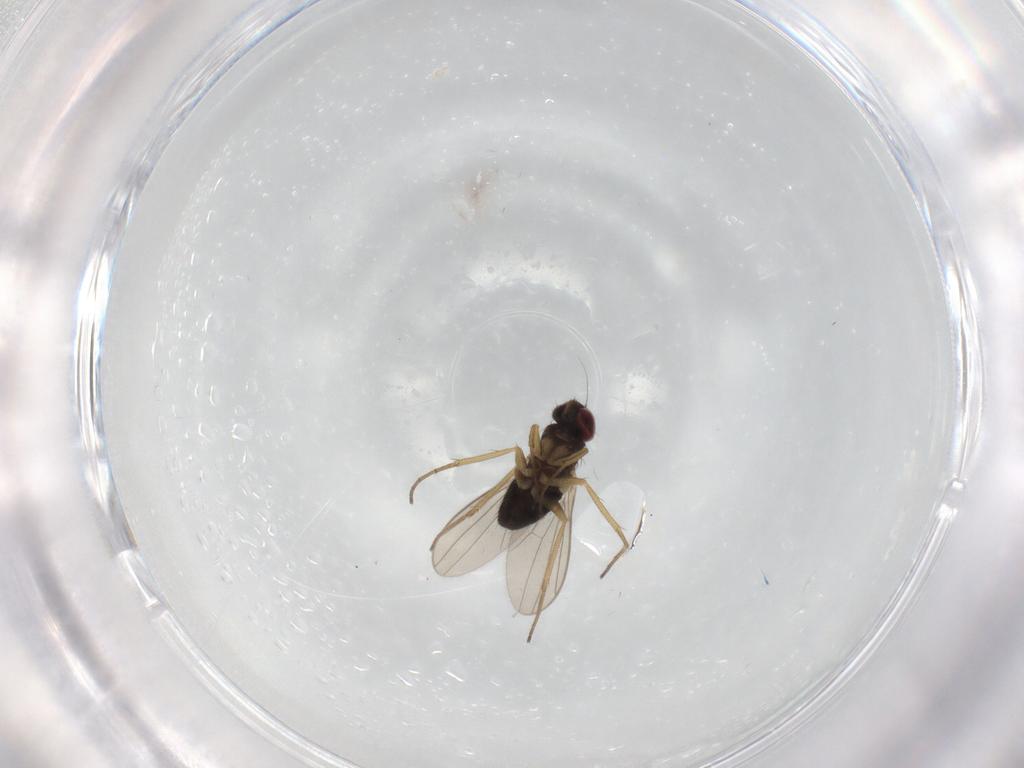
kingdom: Animalia
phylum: Arthropoda
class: Insecta
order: Diptera
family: Dolichopodidae
